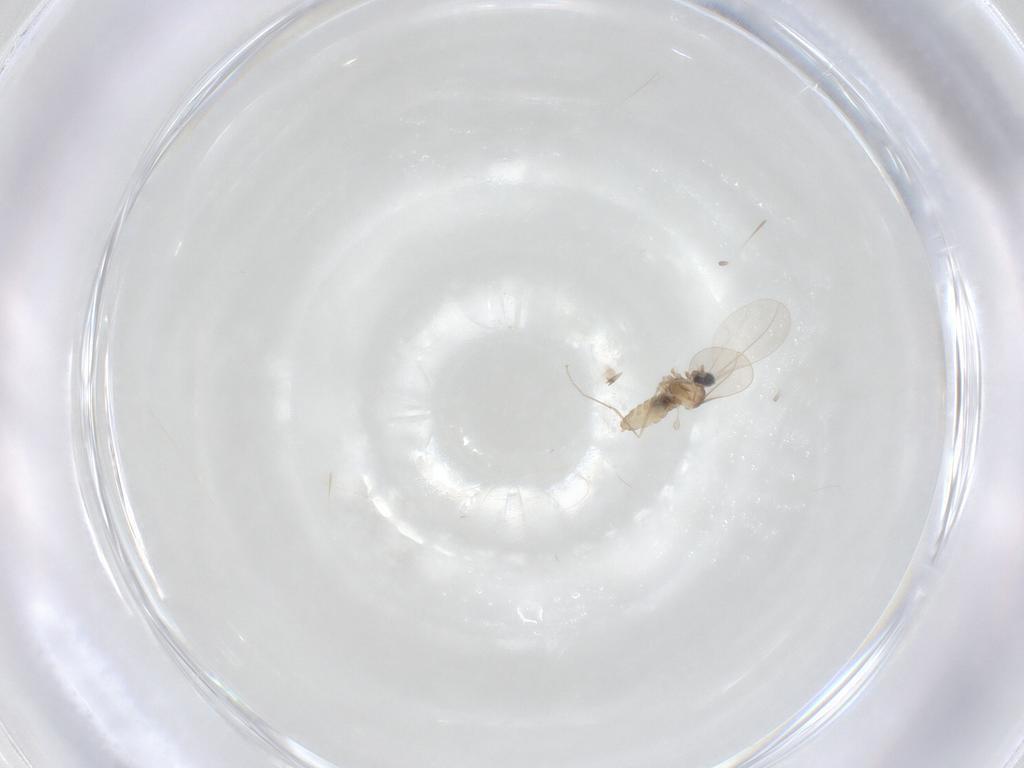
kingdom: Animalia
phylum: Arthropoda
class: Insecta
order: Diptera
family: Cecidomyiidae
